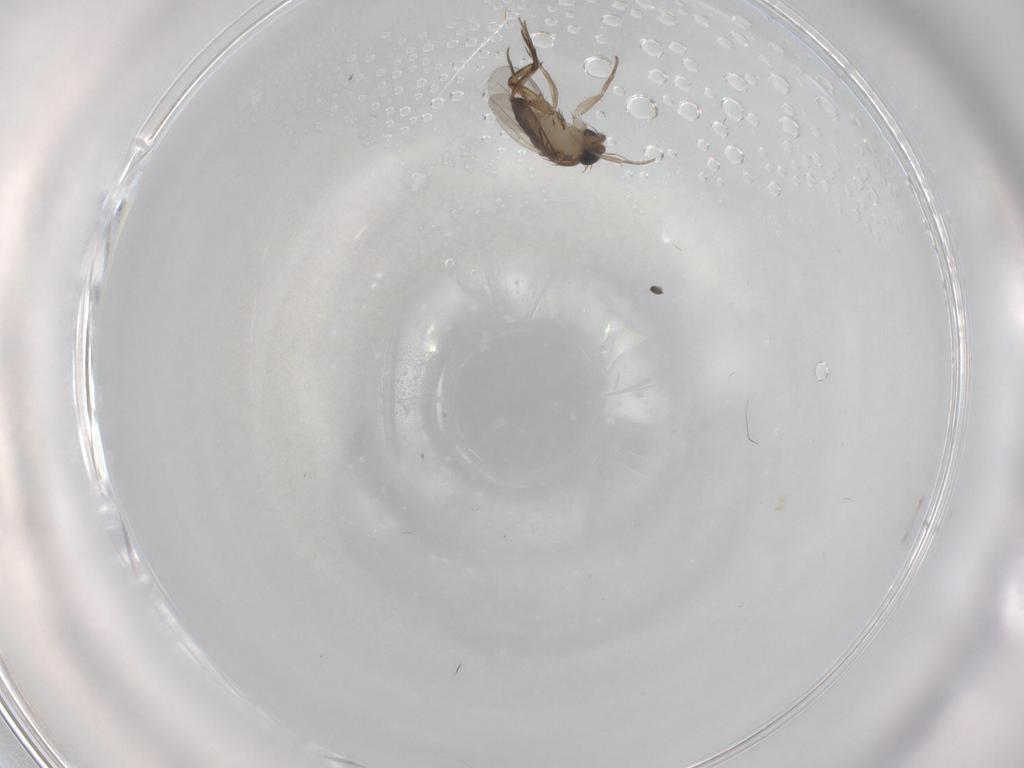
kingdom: Animalia
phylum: Arthropoda
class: Insecta
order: Diptera
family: Phoridae
